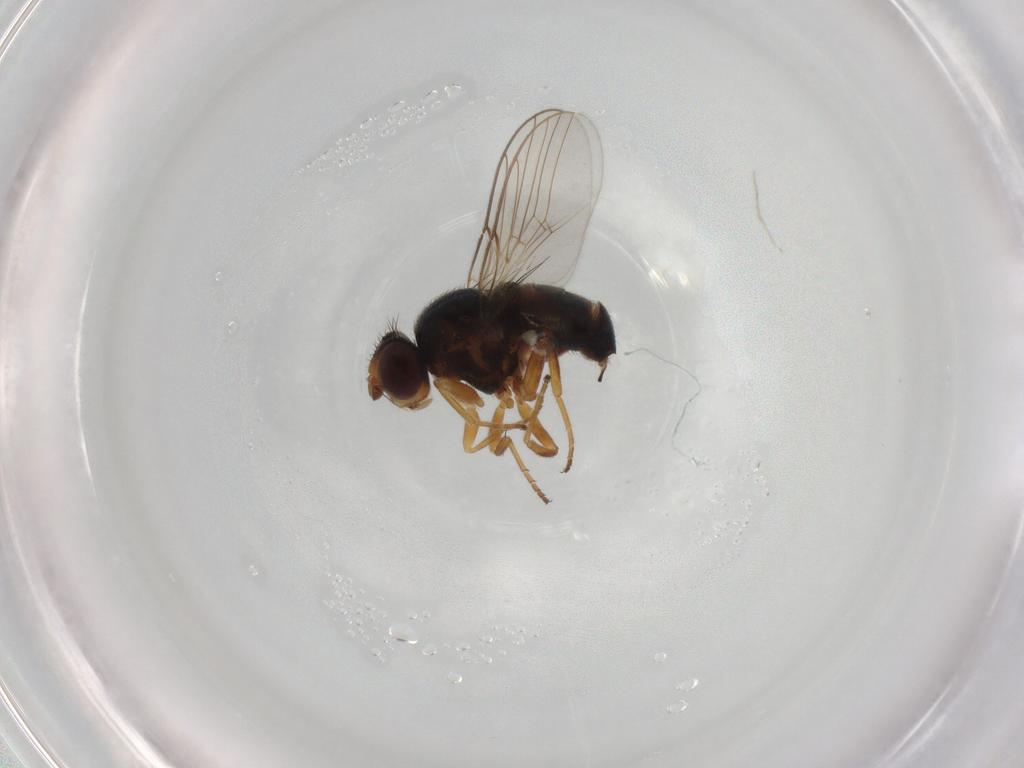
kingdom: Animalia
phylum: Arthropoda
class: Insecta
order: Diptera
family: Chloropidae
